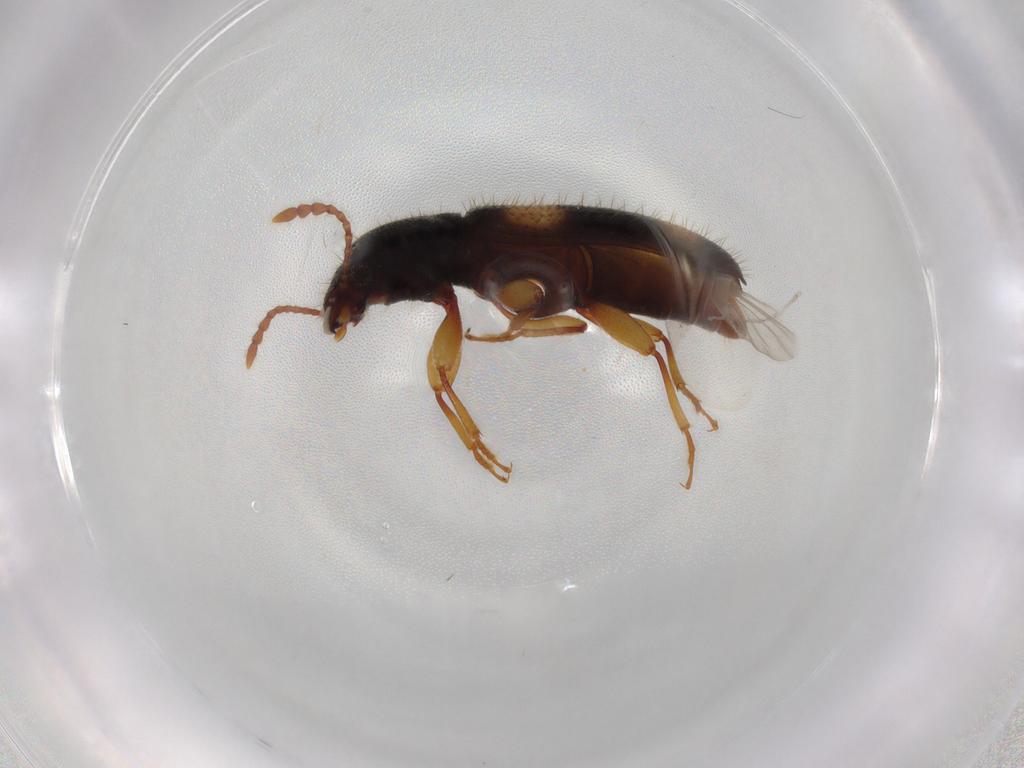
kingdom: Animalia
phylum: Arthropoda
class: Insecta
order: Coleoptera
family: Salpingidae
